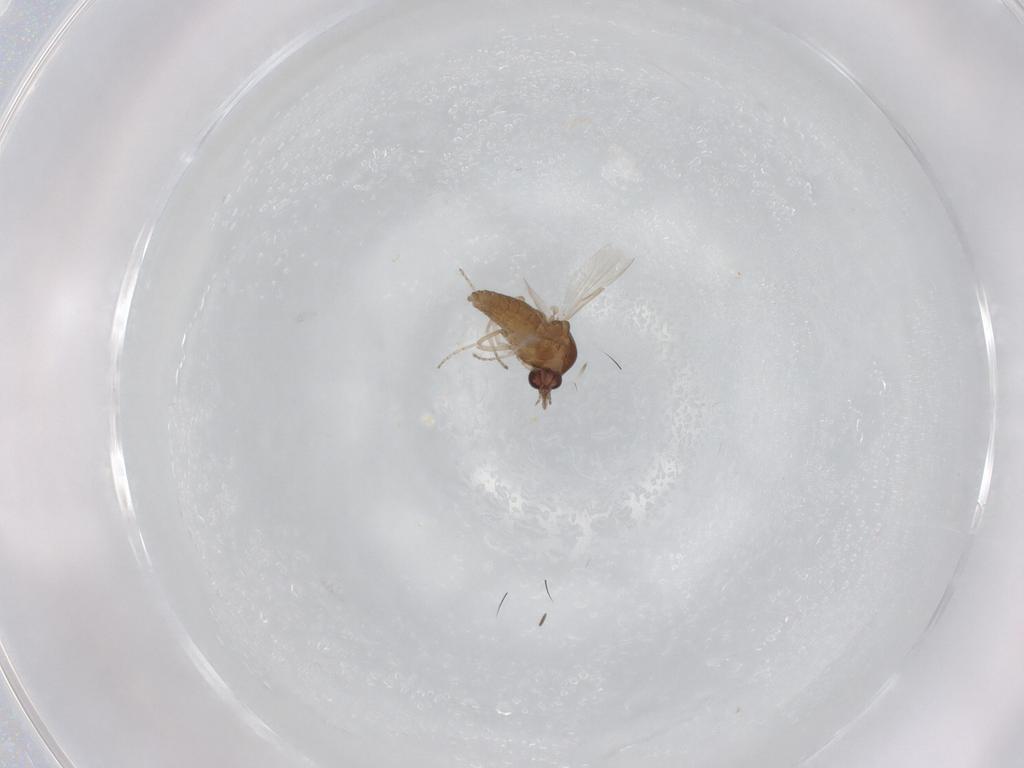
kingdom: Animalia
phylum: Arthropoda
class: Insecta
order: Diptera
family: Ceratopogonidae
